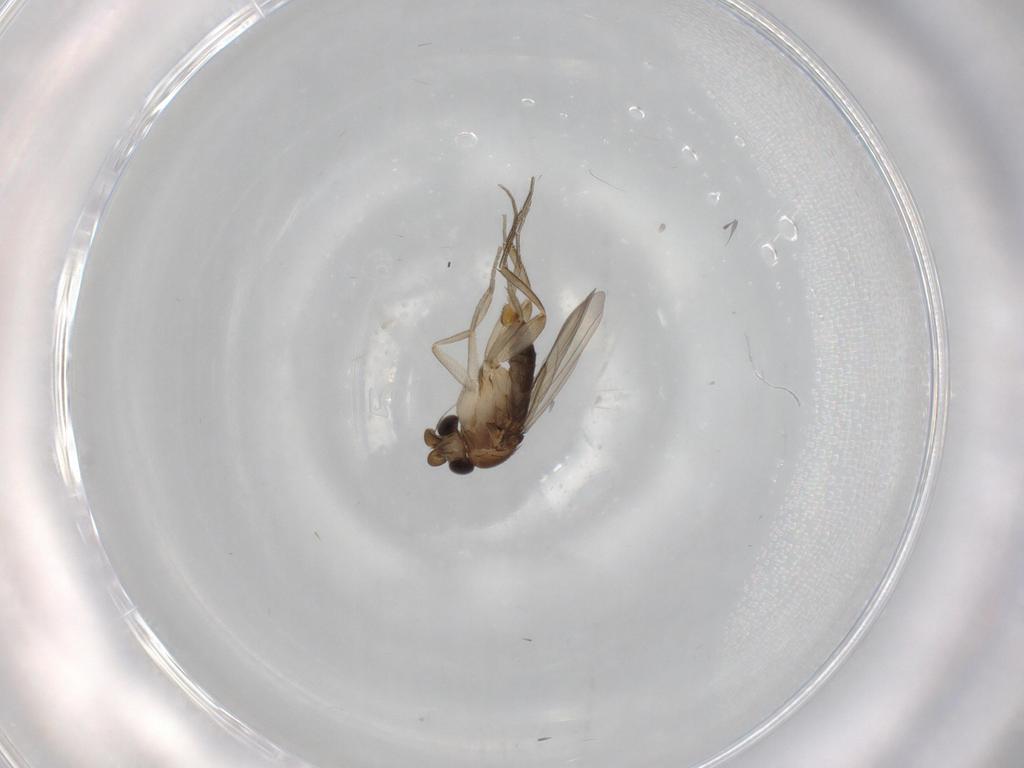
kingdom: Animalia
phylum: Arthropoda
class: Insecta
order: Diptera
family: Phoridae
